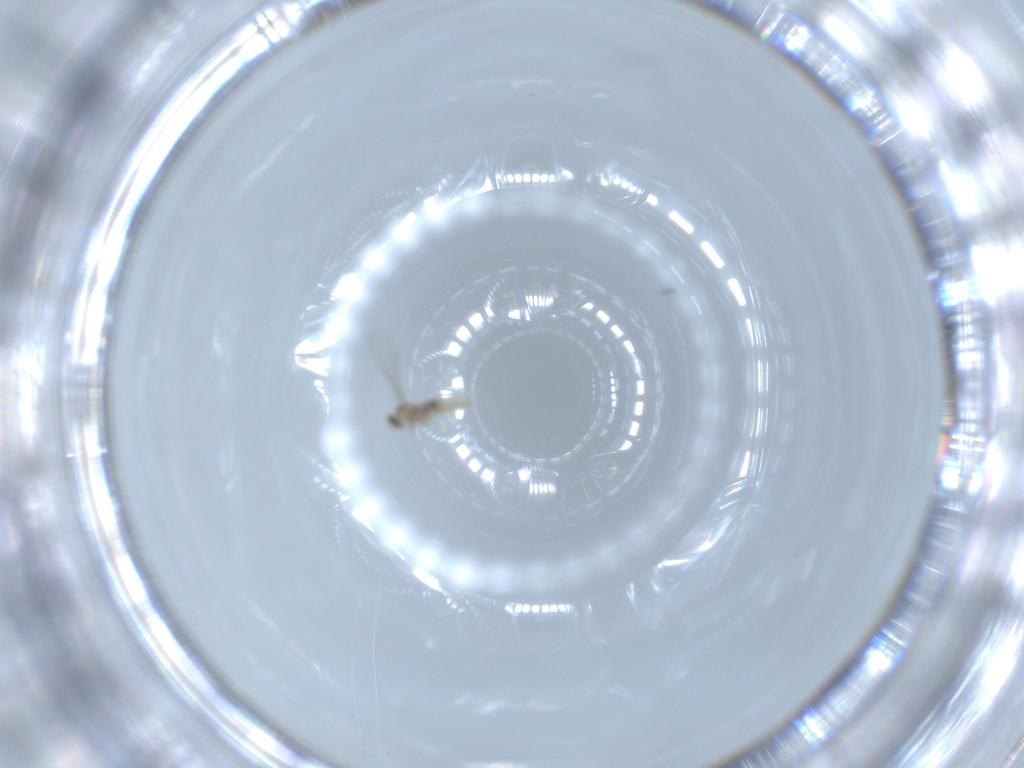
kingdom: Animalia
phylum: Arthropoda
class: Insecta
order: Diptera
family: Cecidomyiidae
